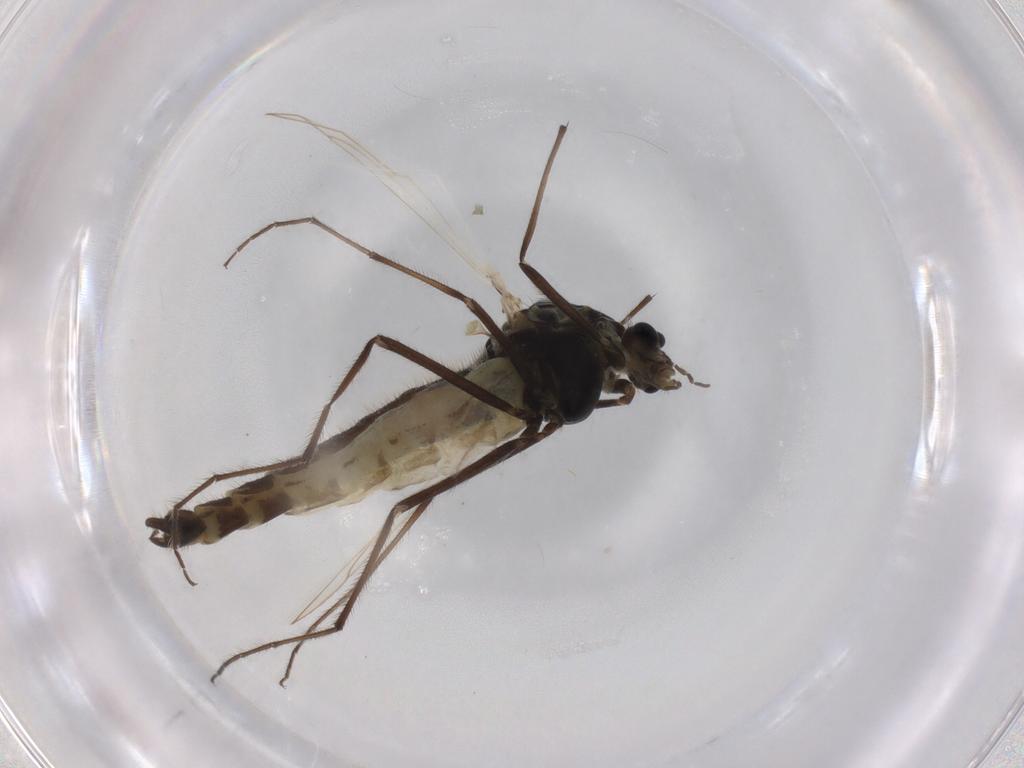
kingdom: Animalia
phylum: Arthropoda
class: Insecta
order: Diptera
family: Chironomidae
